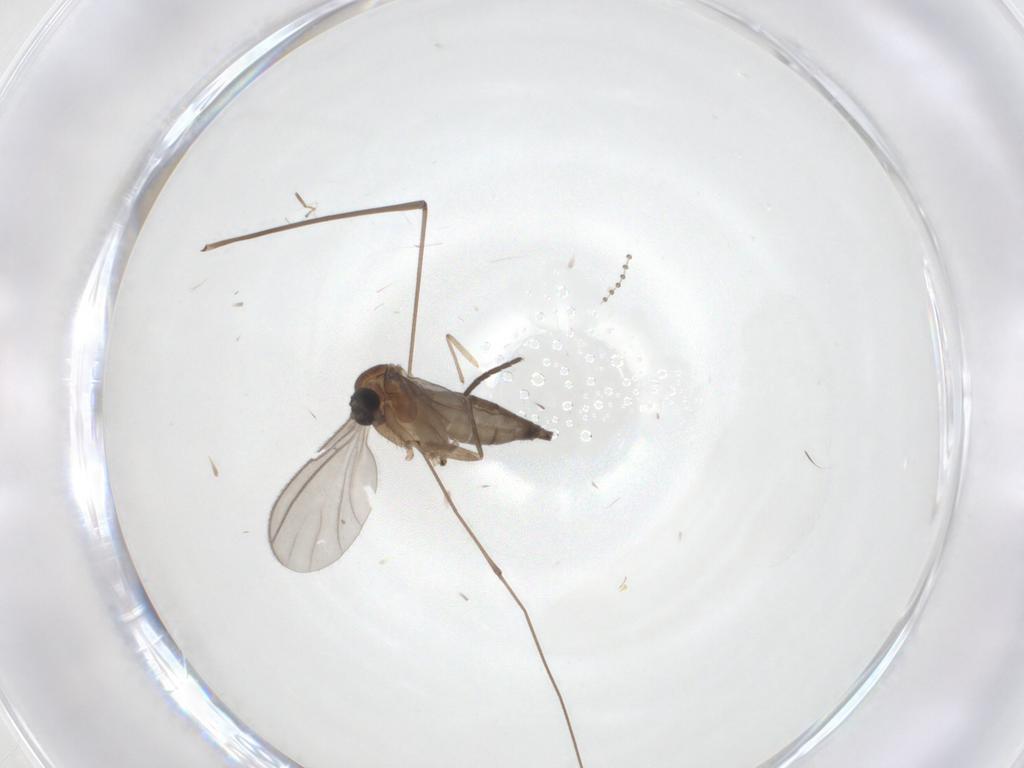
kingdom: Animalia
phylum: Arthropoda
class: Insecta
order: Diptera
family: Sciaridae
